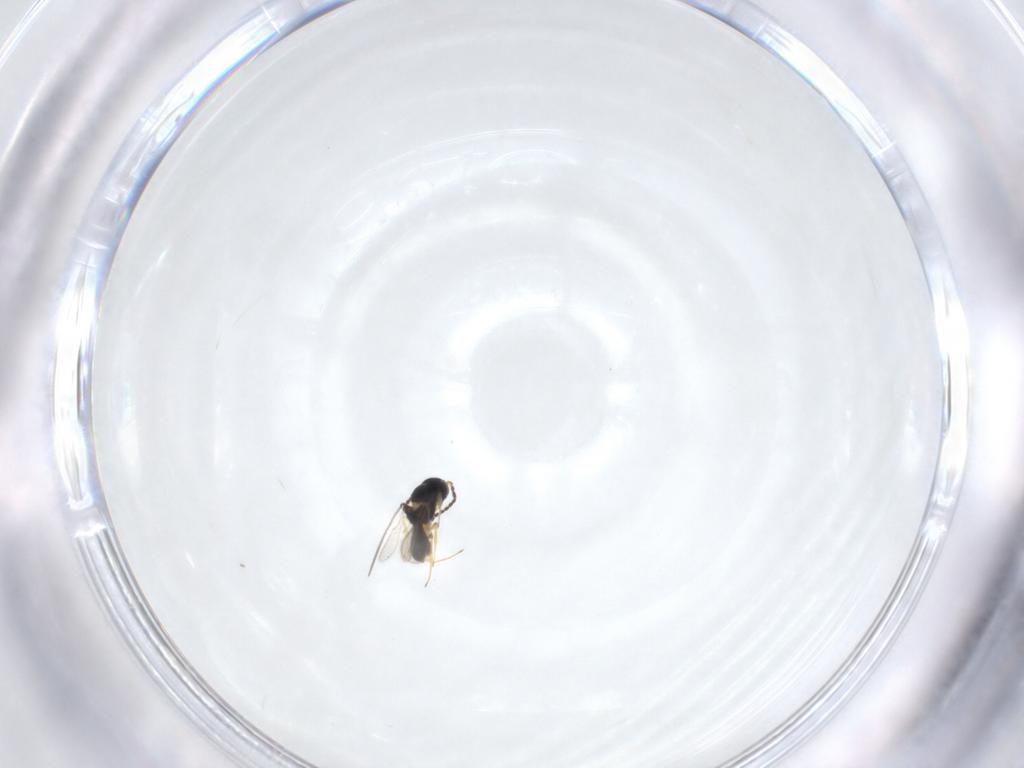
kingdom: Animalia
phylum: Arthropoda
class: Insecta
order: Hymenoptera
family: Scelionidae
